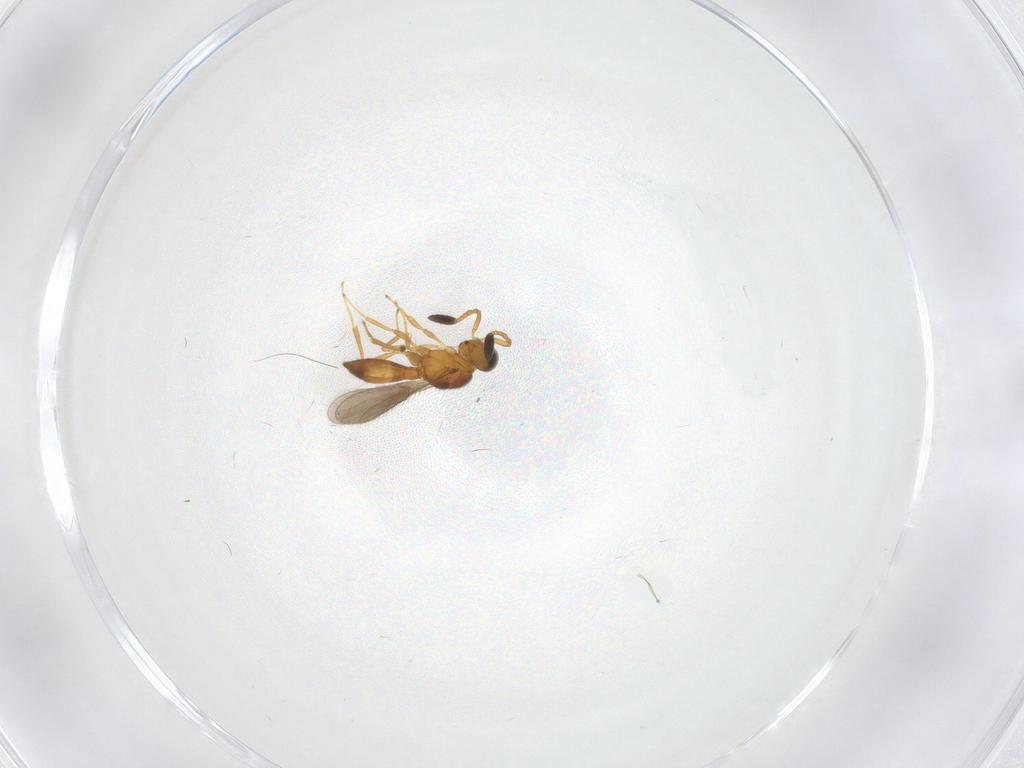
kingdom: Animalia
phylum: Arthropoda
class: Insecta
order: Hymenoptera
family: Scelionidae
